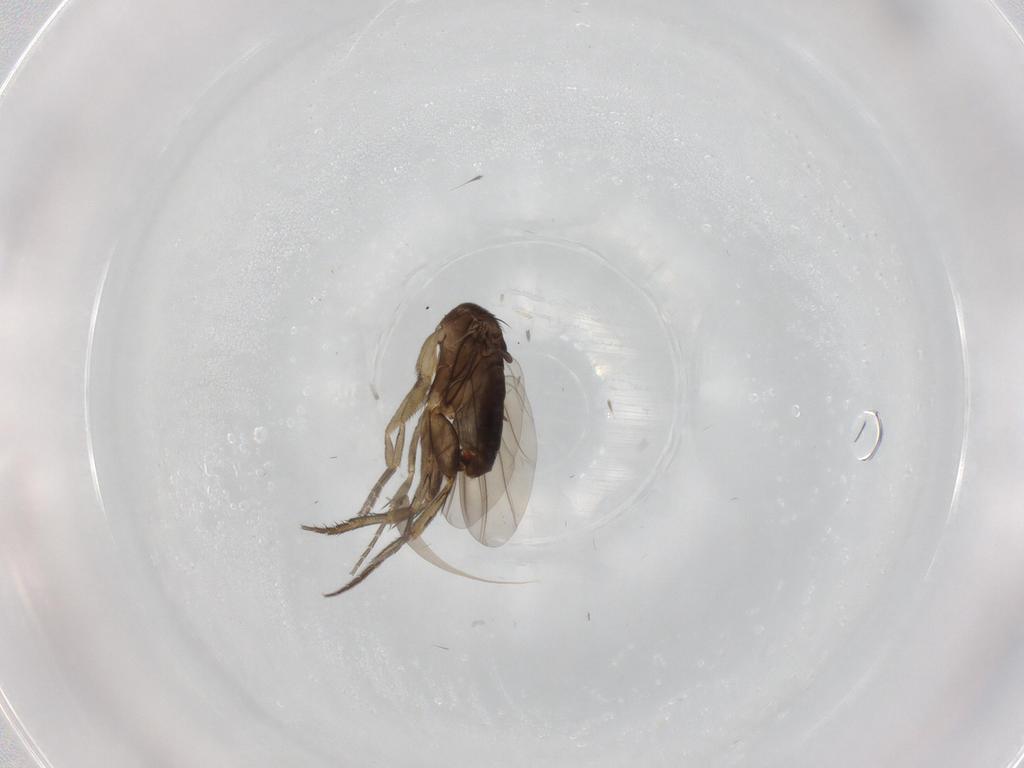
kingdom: Animalia
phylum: Arthropoda
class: Insecta
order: Diptera
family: Phoridae
